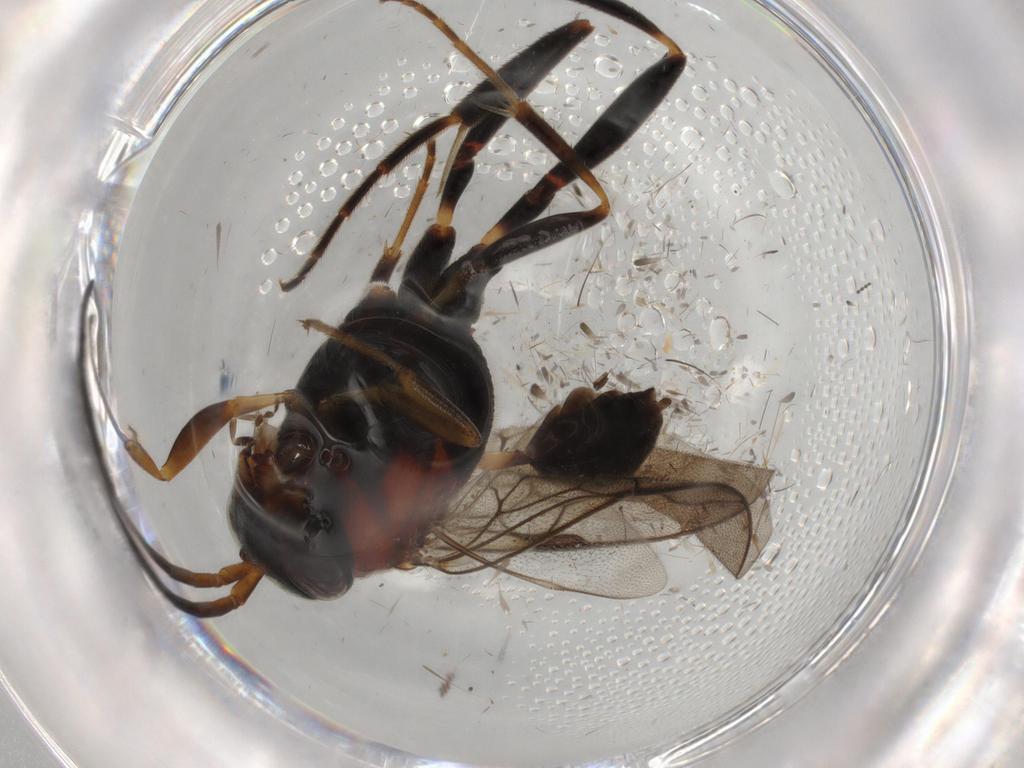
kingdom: Animalia
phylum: Arthropoda
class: Insecta
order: Hymenoptera
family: Evaniidae
